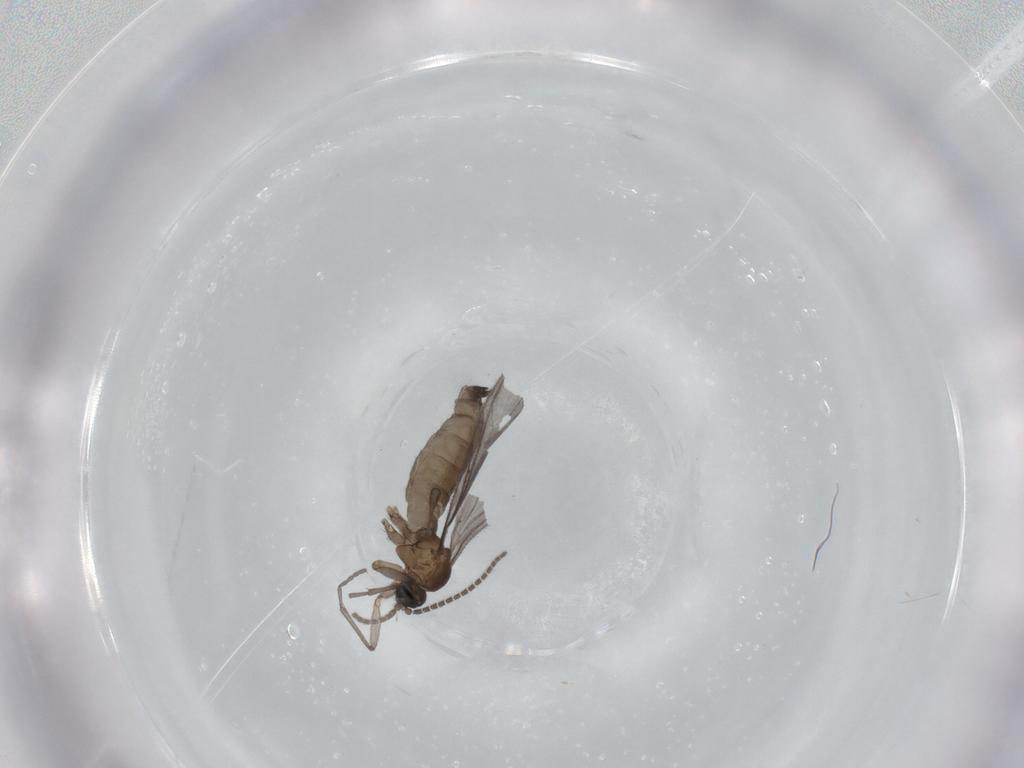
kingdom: Animalia
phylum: Arthropoda
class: Insecta
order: Diptera
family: Sciaridae
